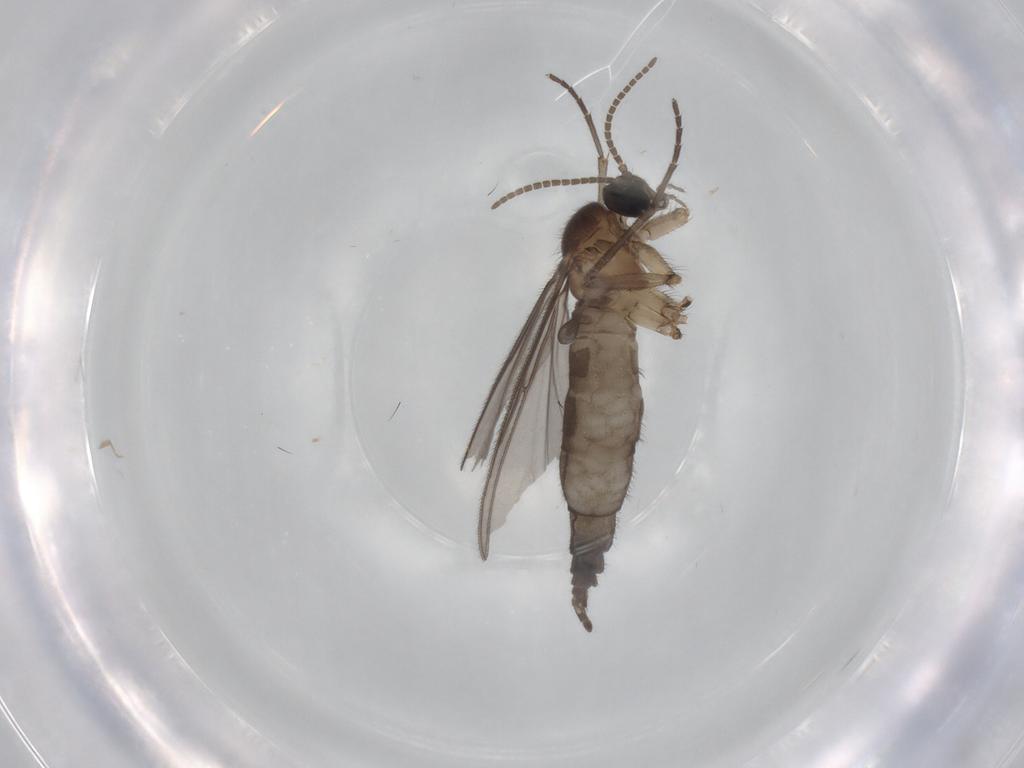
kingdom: Animalia
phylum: Arthropoda
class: Insecta
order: Diptera
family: Sciaridae
